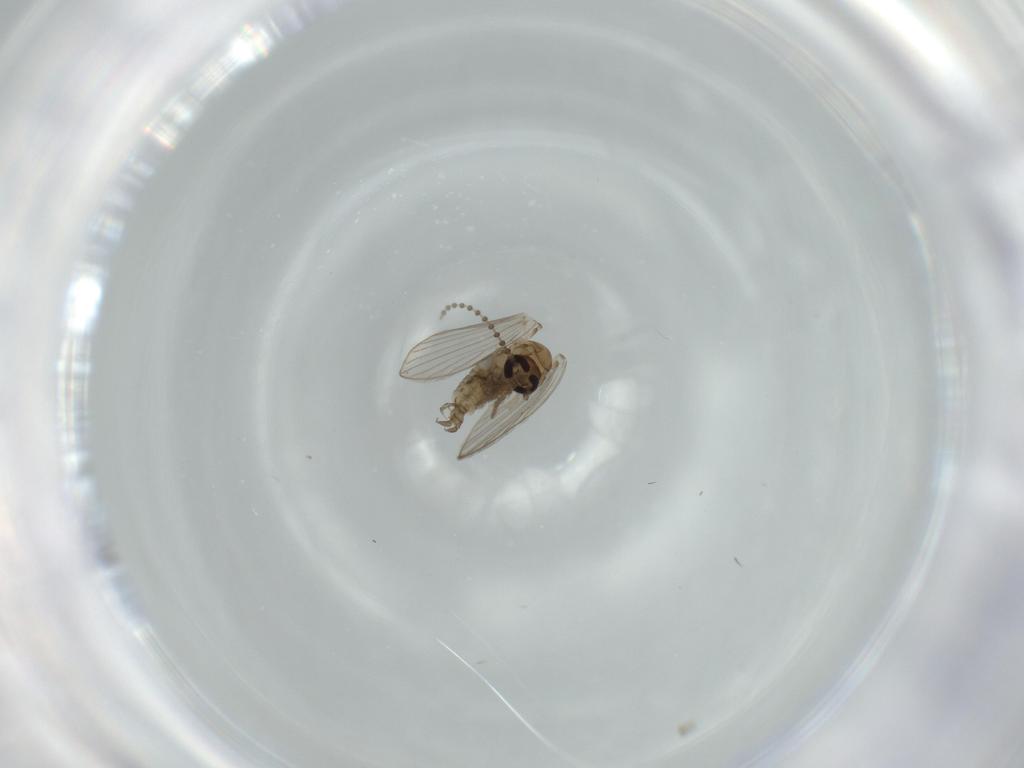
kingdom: Animalia
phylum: Arthropoda
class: Insecta
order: Diptera
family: Psychodidae
